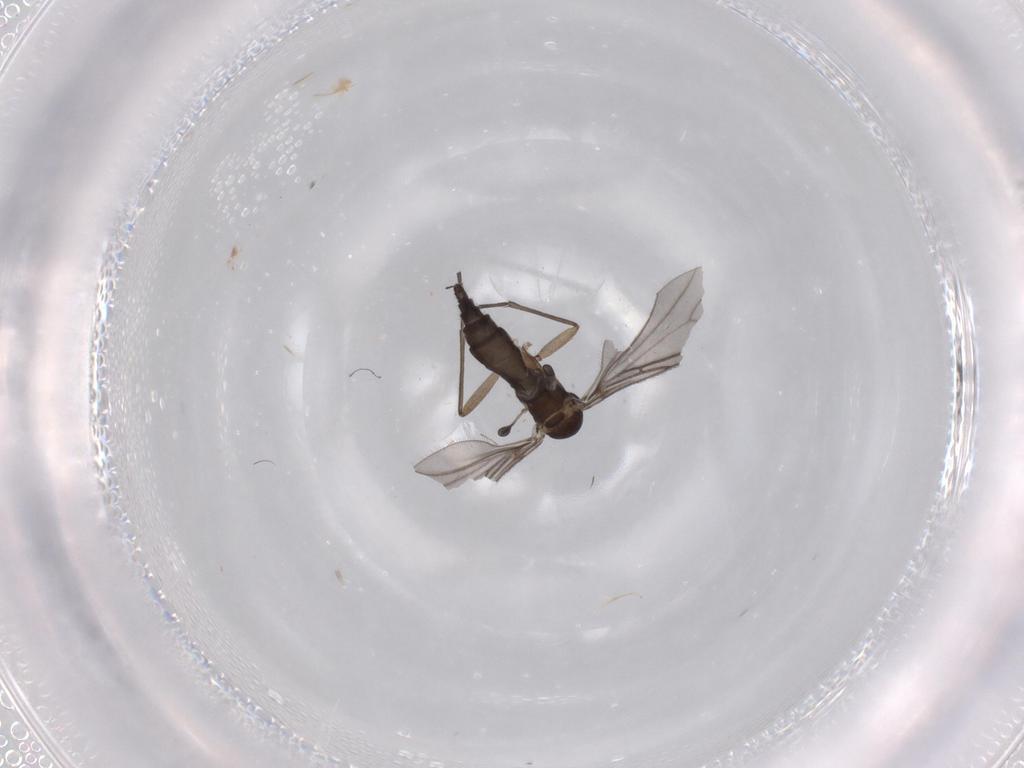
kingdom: Animalia
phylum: Arthropoda
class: Insecta
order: Diptera
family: Sciaridae
